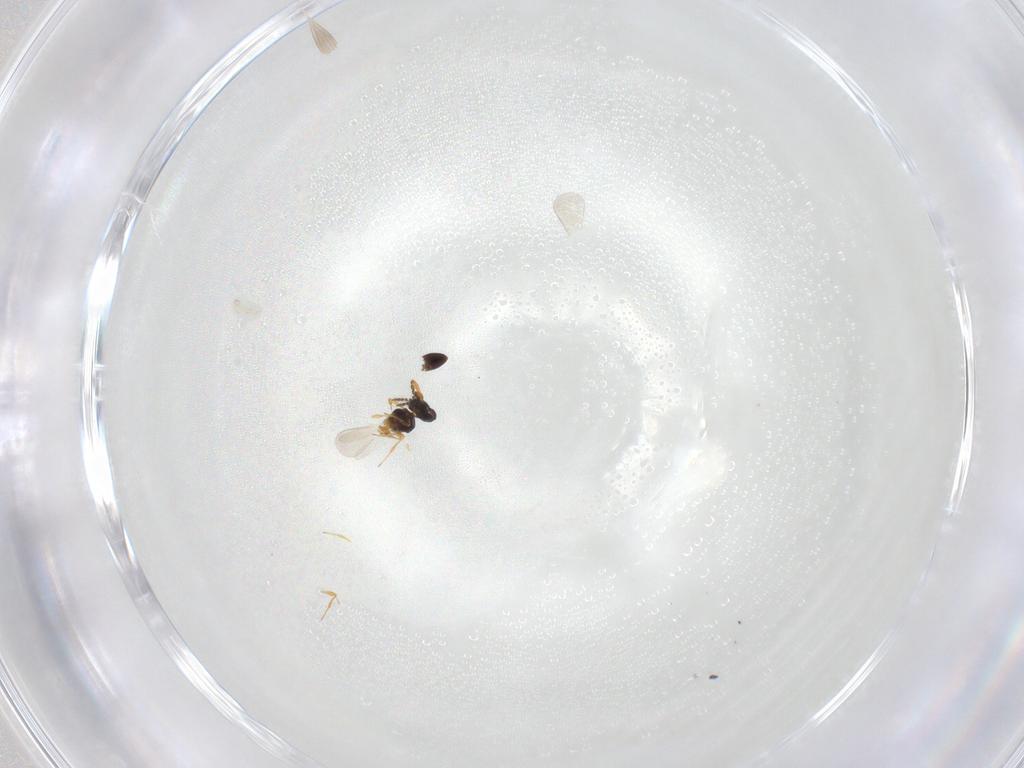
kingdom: Animalia
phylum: Arthropoda
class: Insecta
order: Hymenoptera
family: Platygastridae
